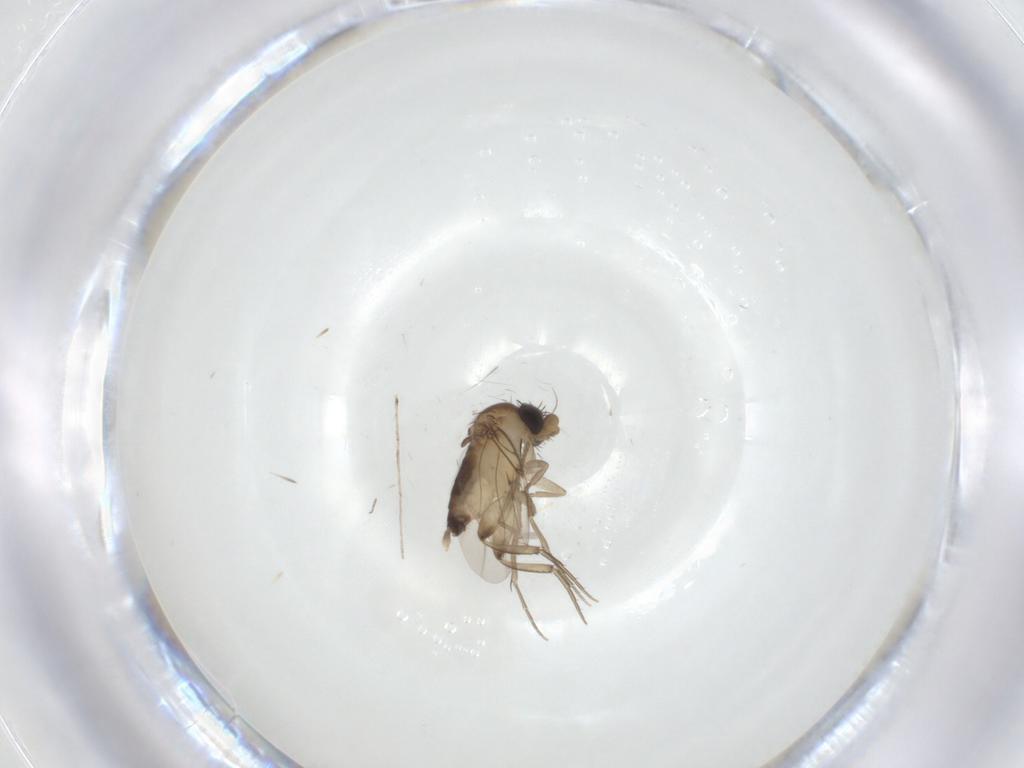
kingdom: Animalia
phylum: Arthropoda
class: Insecta
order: Diptera
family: Phoridae
